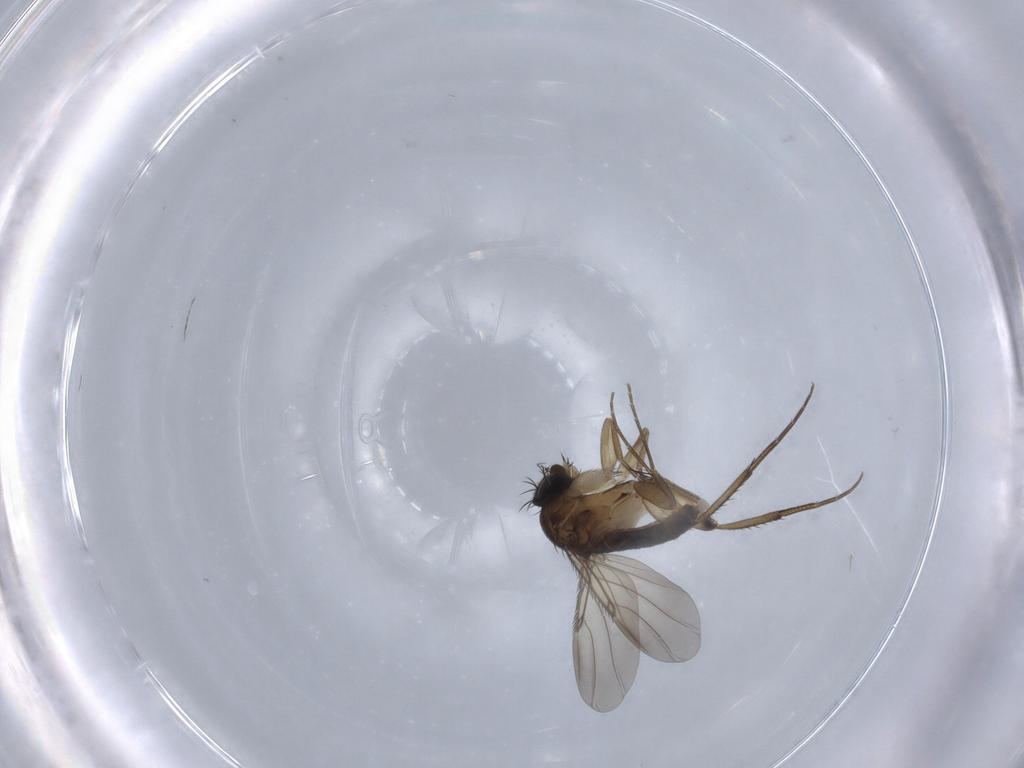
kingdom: Animalia
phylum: Arthropoda
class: Insecta
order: Diptera
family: Phoridae
